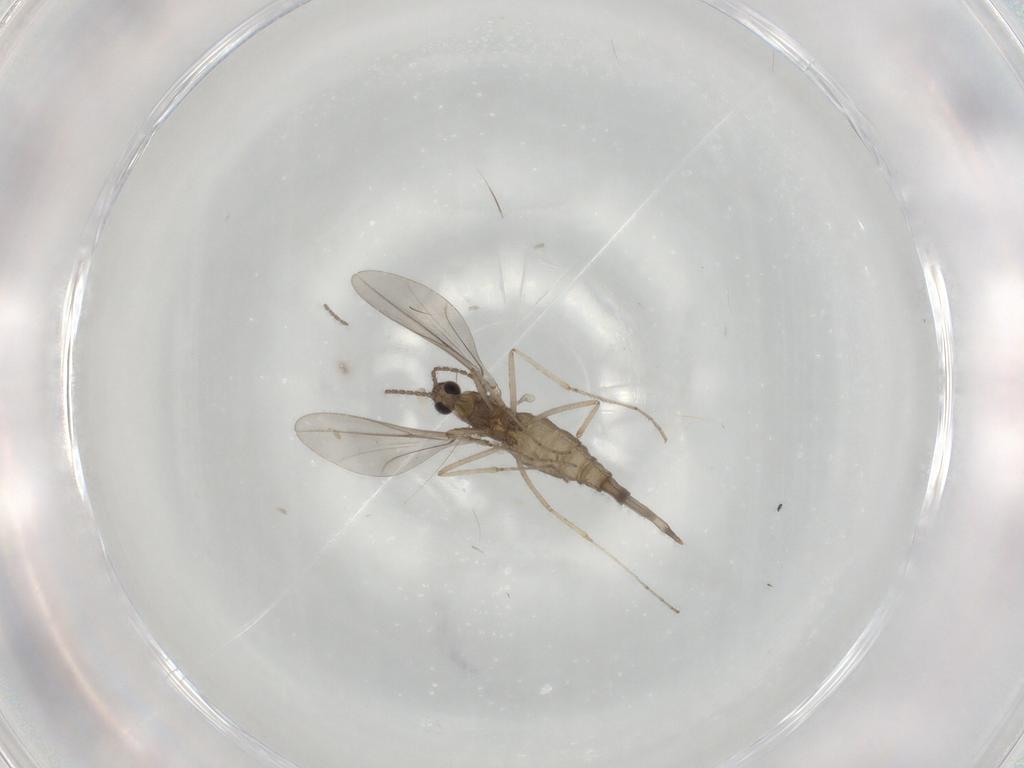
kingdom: Animalia
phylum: Arthropoda
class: Insecta
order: Diptera
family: Cecidomyiidae
